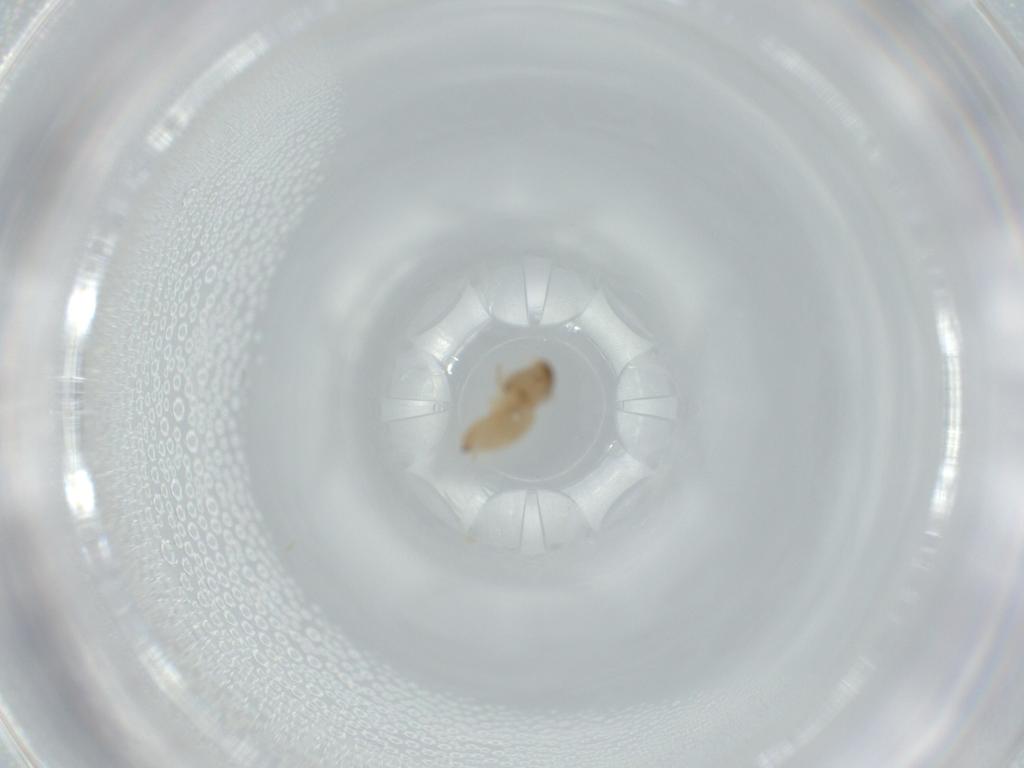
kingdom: Animalia
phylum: Arthropoda
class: Insecta
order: Diptera
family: Cecidomyiidae
